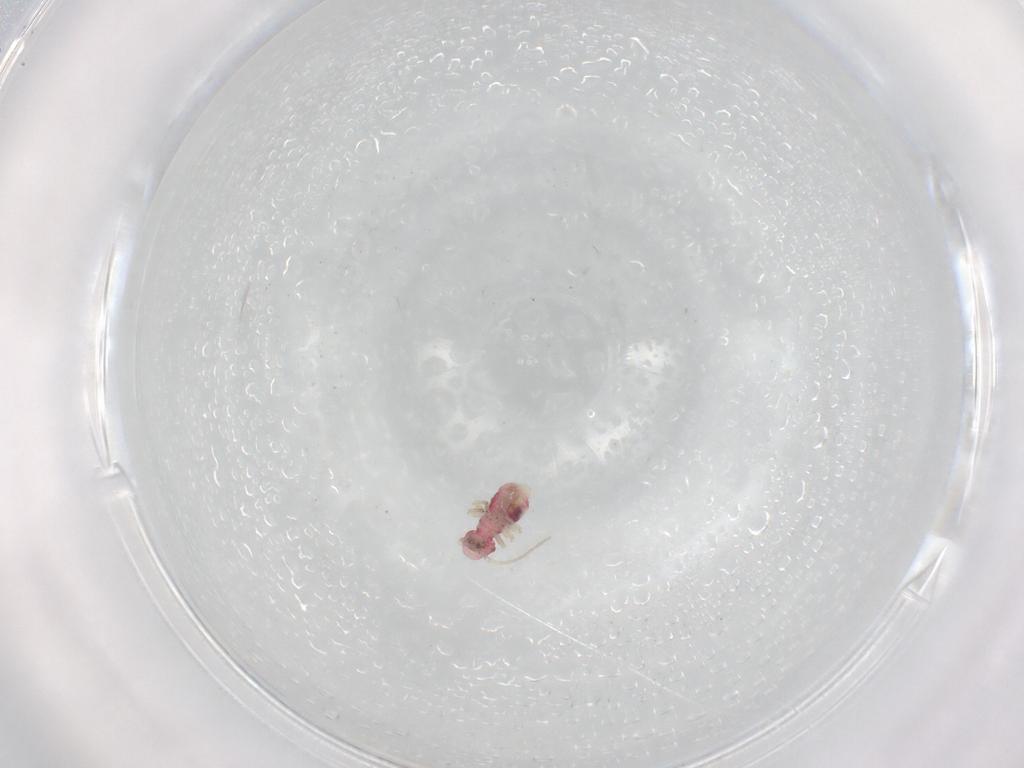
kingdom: Animalia
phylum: Arthropoda
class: Insecta
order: Psocodea
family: Caeciliusidae
